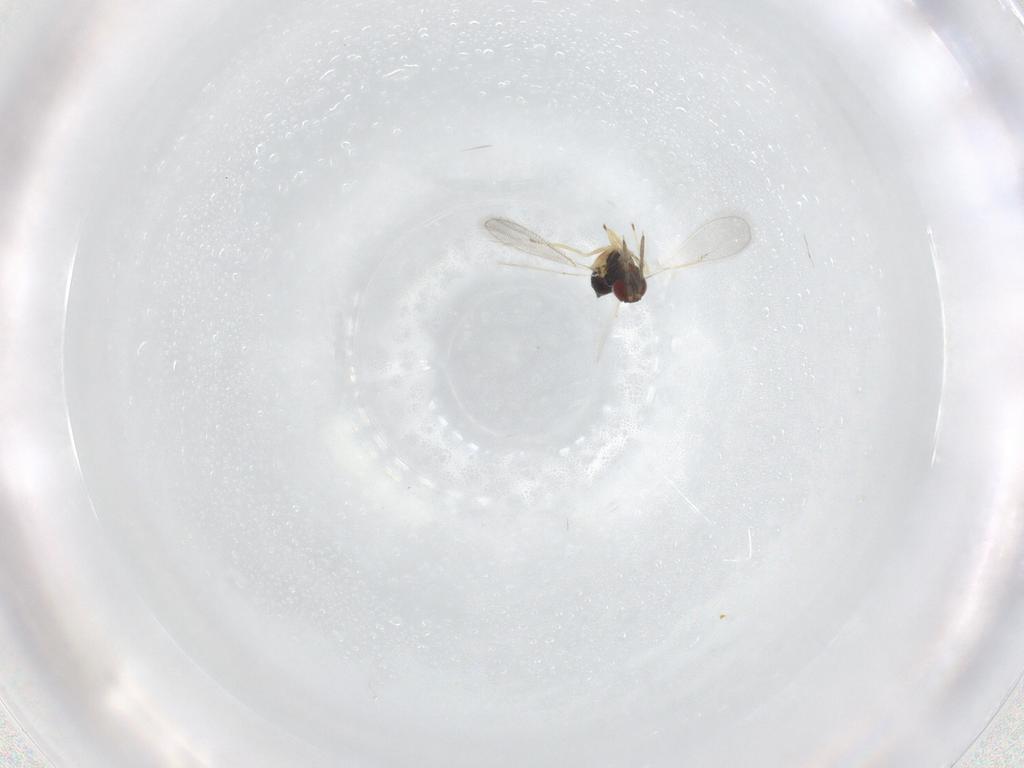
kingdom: Animalia
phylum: Arthropoda
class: Insecta
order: Hymenoptera
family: Eulophidae
